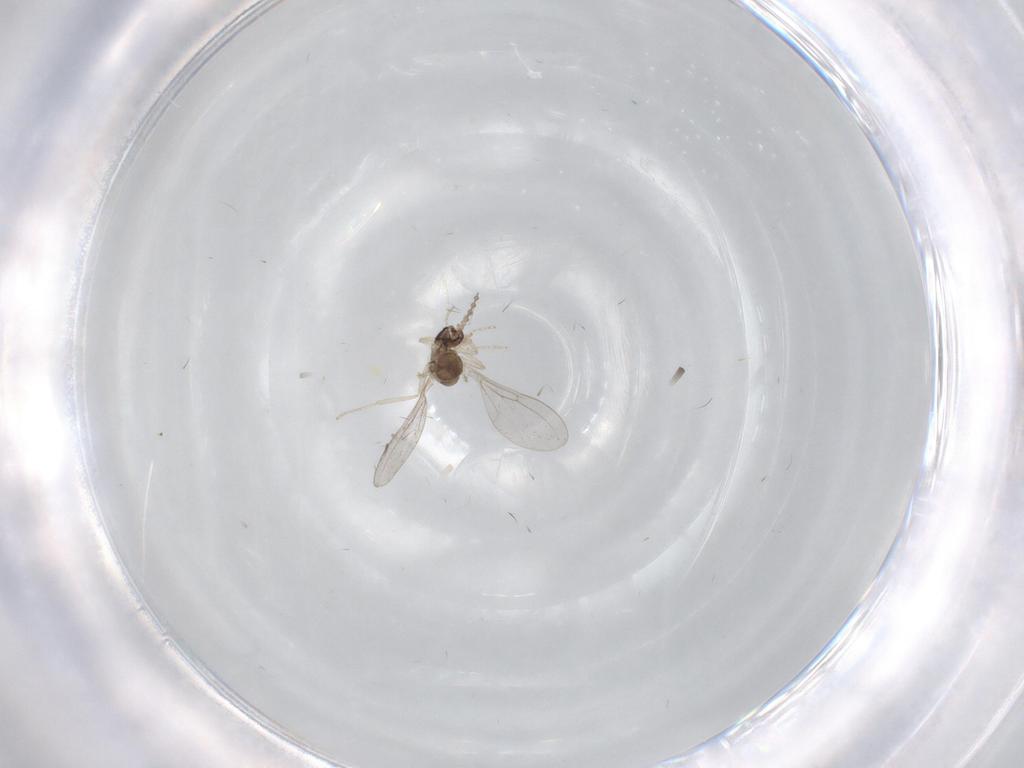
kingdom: Animalia
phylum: Arthropoda
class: Insecta
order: Diptera
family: Cecidomyiidae
